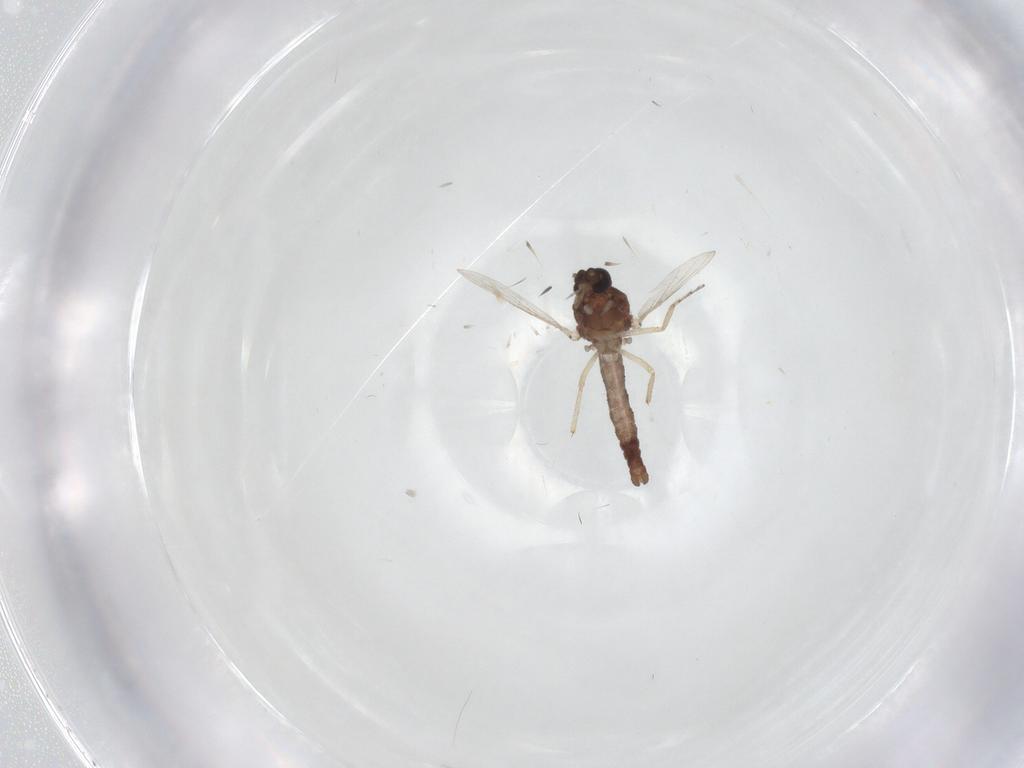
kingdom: Animalia
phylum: Arthropoda
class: Insecta
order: Diptera
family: Ceratopogonidae
